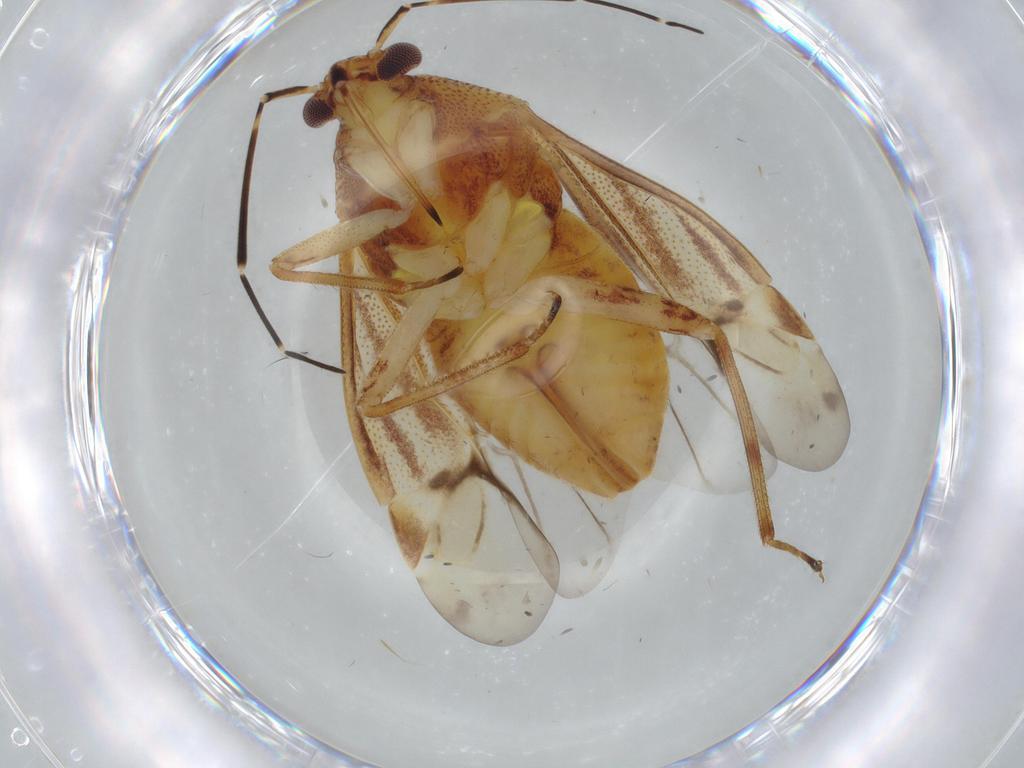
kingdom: Animalia
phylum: Arthropoda
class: Insecta
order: Hemiptera
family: Miridae
